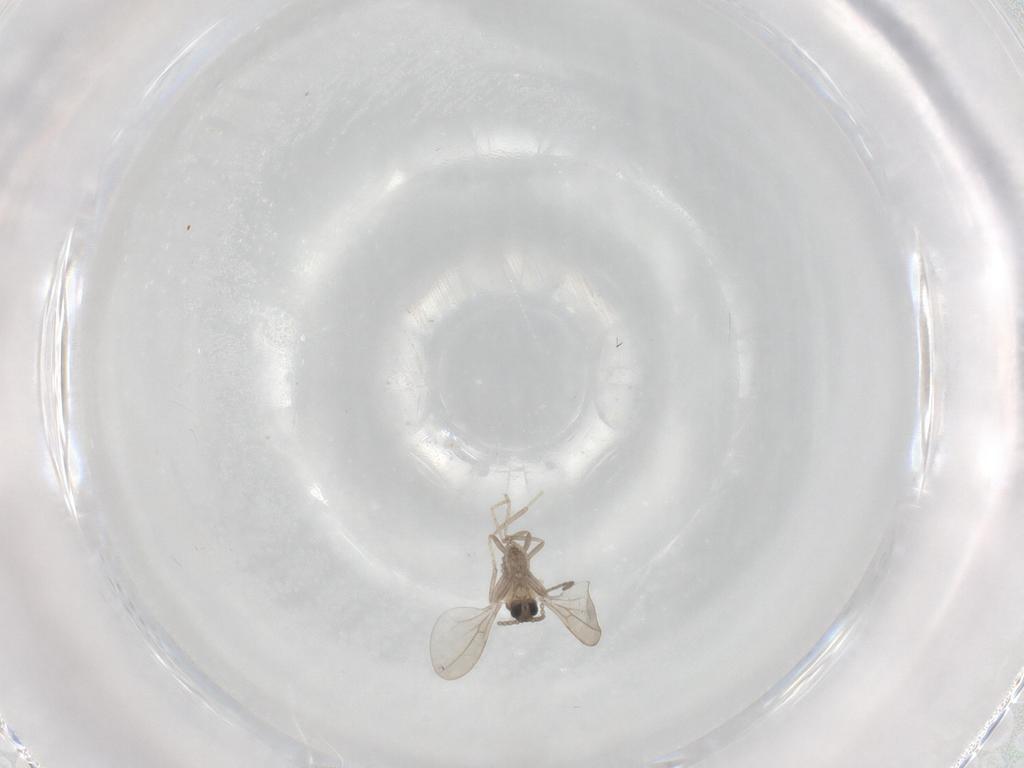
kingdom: Animalia
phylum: Arthropoda
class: Insecta
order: Diptera
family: Cecidomyiidae
